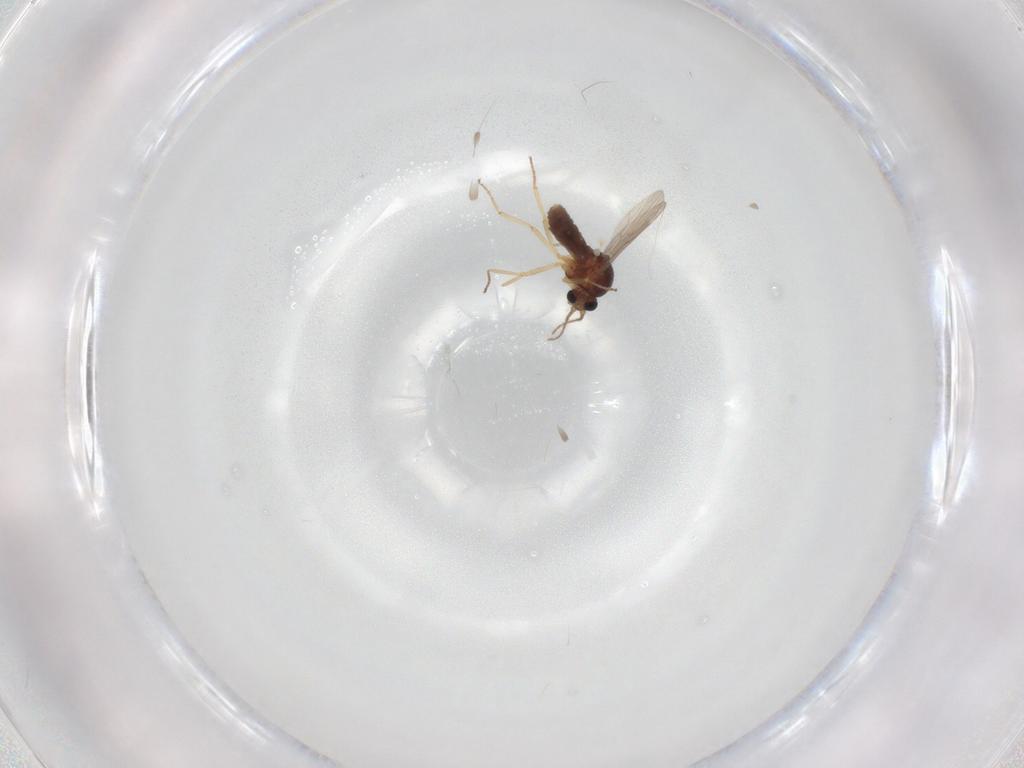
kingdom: Animalia
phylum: Arthropoda
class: Insecta
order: Diptera
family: Ceratopogonidae
